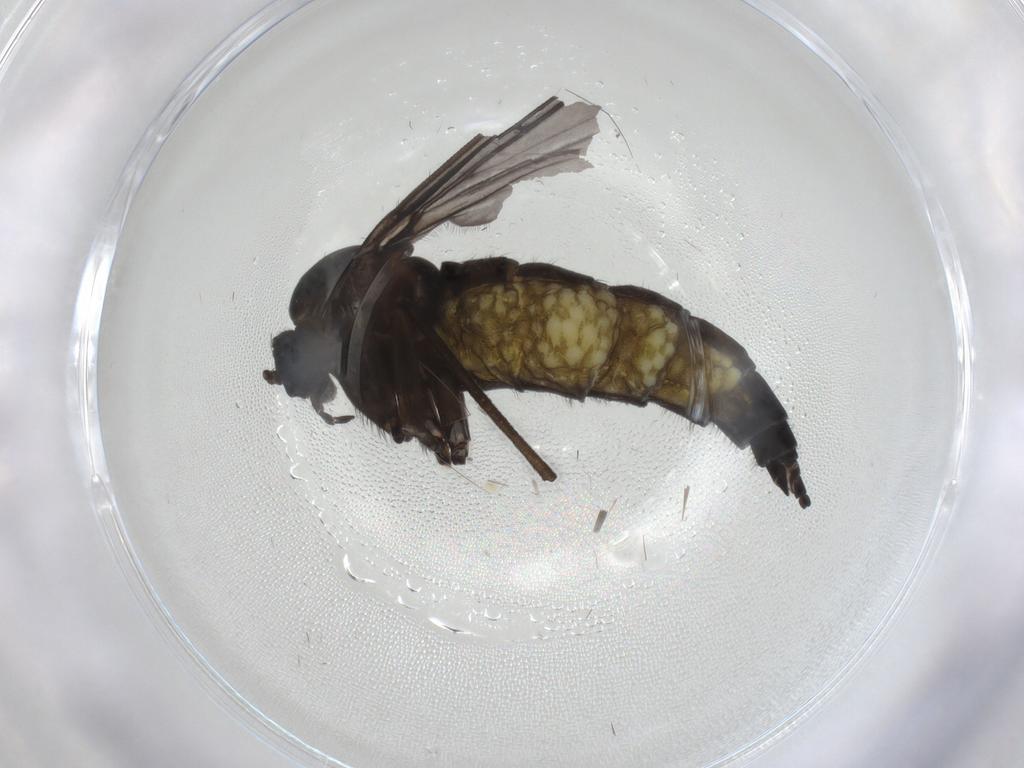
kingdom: Animalia
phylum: Arthropoda
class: Insecta
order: Diptera
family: Sciaridae
